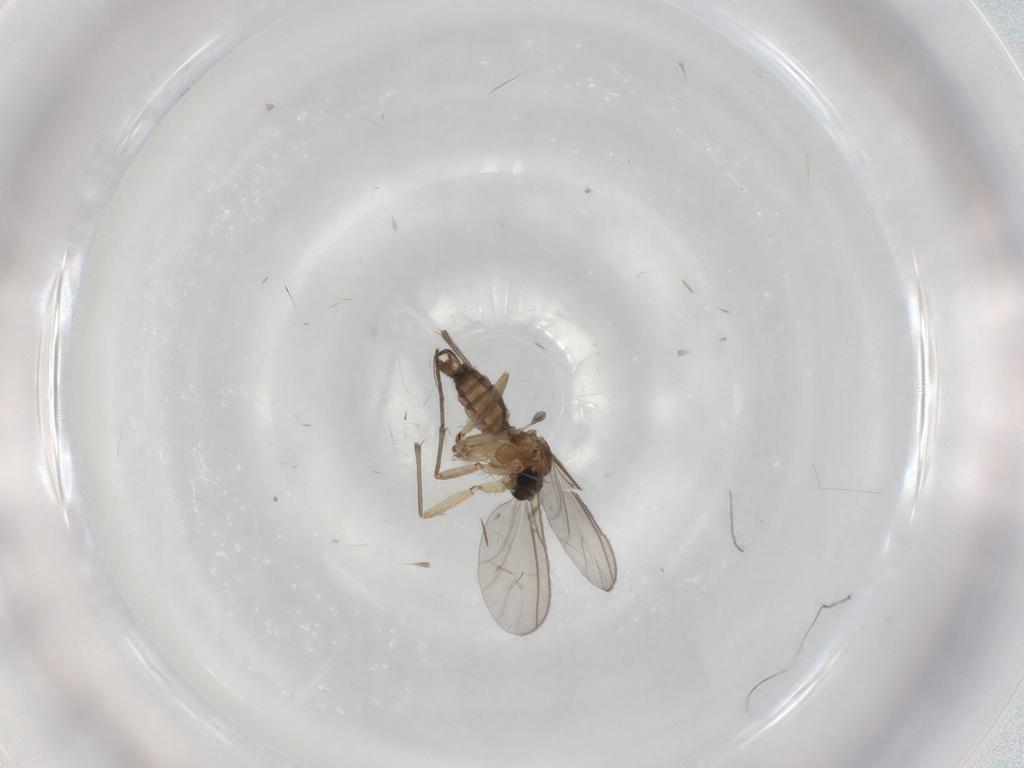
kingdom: Animalia
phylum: Arthropoda
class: Insecta
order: Diptera
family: Sciaridae
